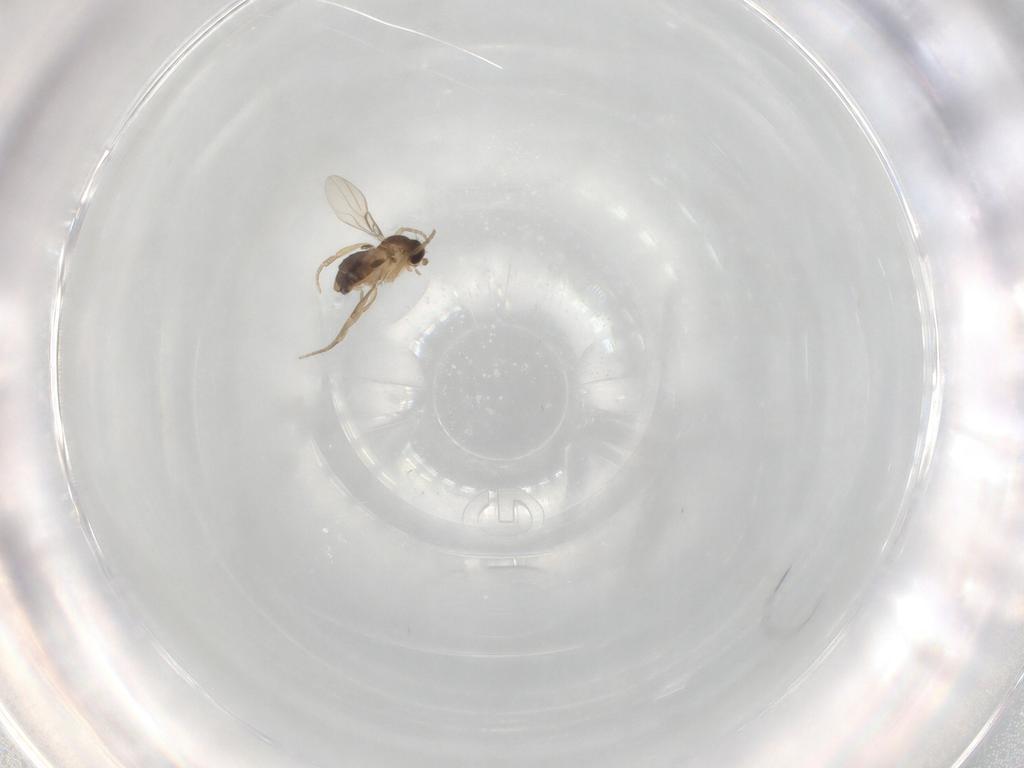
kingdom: Animalia
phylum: Arthropoda
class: Insecta
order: Diptera
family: Phoridae
